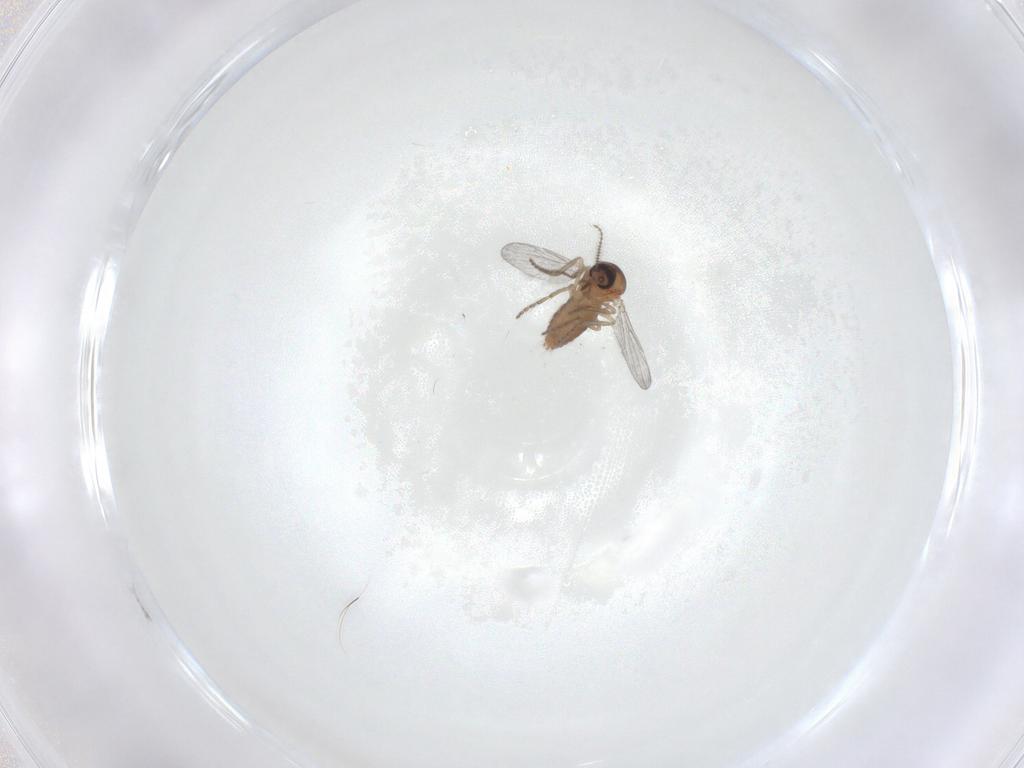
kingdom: Animalia
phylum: Arthropoda
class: Insecta
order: Diptera
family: Ceratopogonidae
